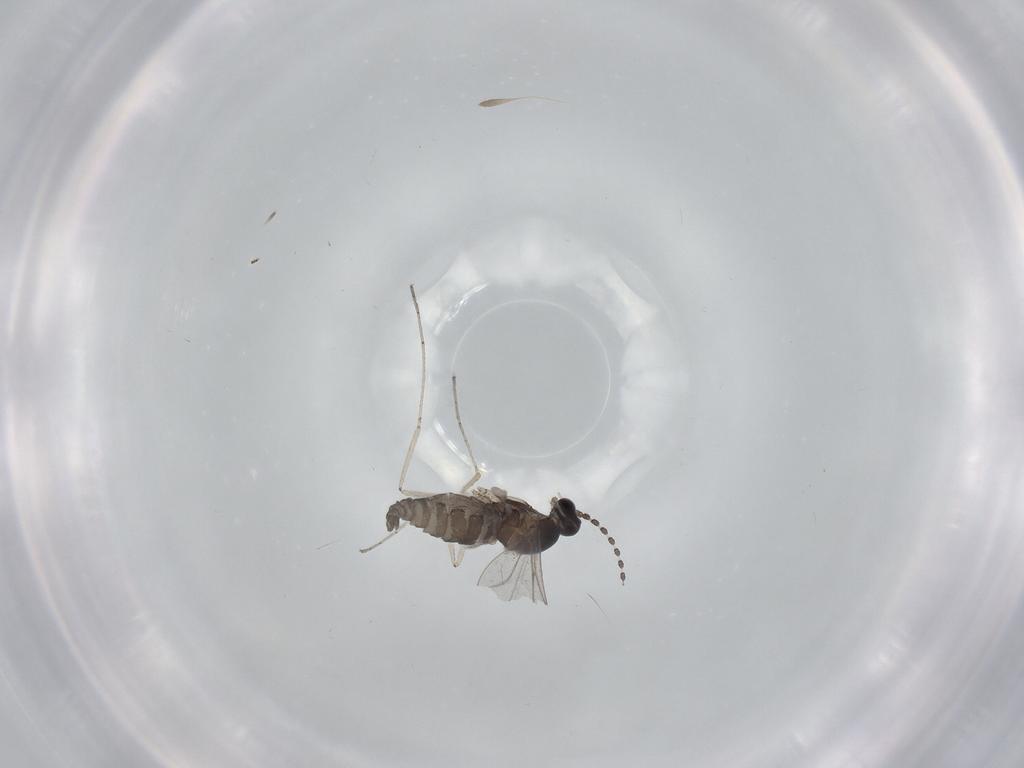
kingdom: Animalia
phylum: Arthropoda
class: Insecta
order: Diptera
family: Cecidomyiidae
